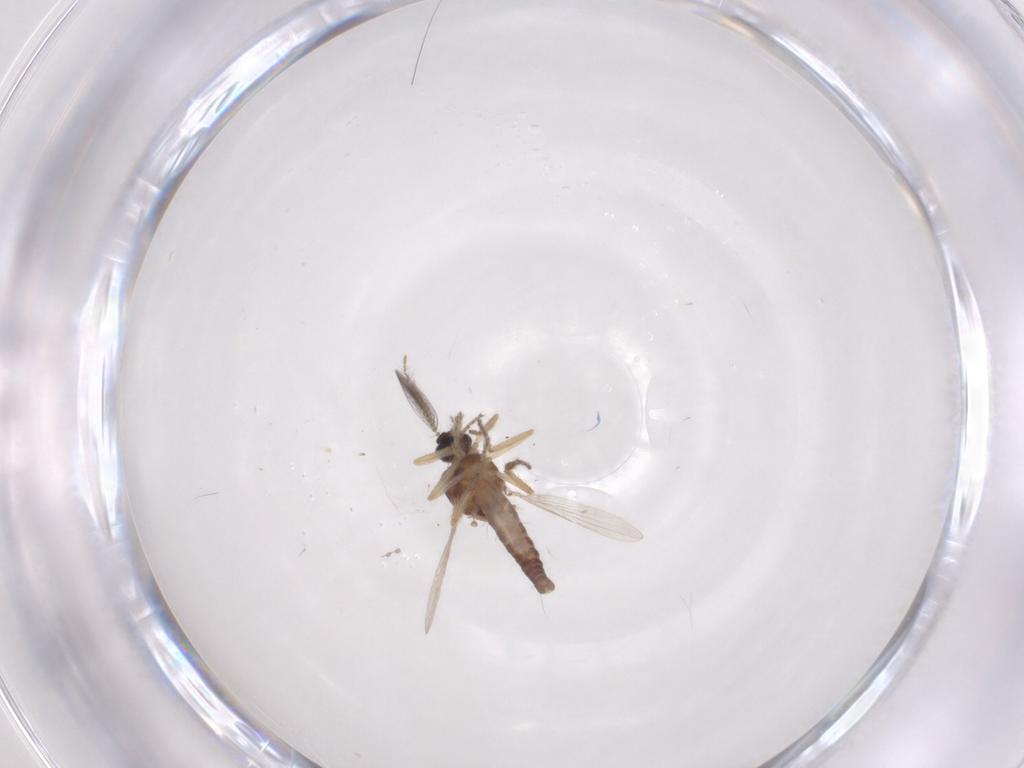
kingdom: Animalia
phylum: Arthropoda
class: Insecta
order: Diptera
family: Ceratopogonidae
